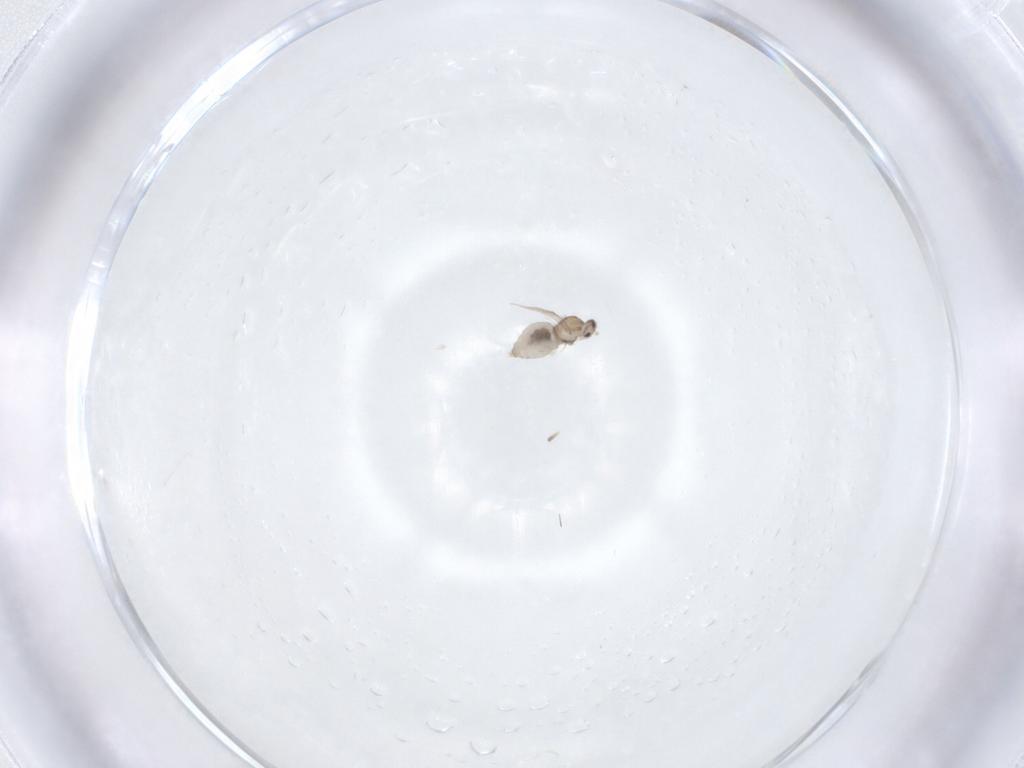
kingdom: Animalia
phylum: Arthropoda
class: Insecta
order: Diptera
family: Cecidomyiidae
